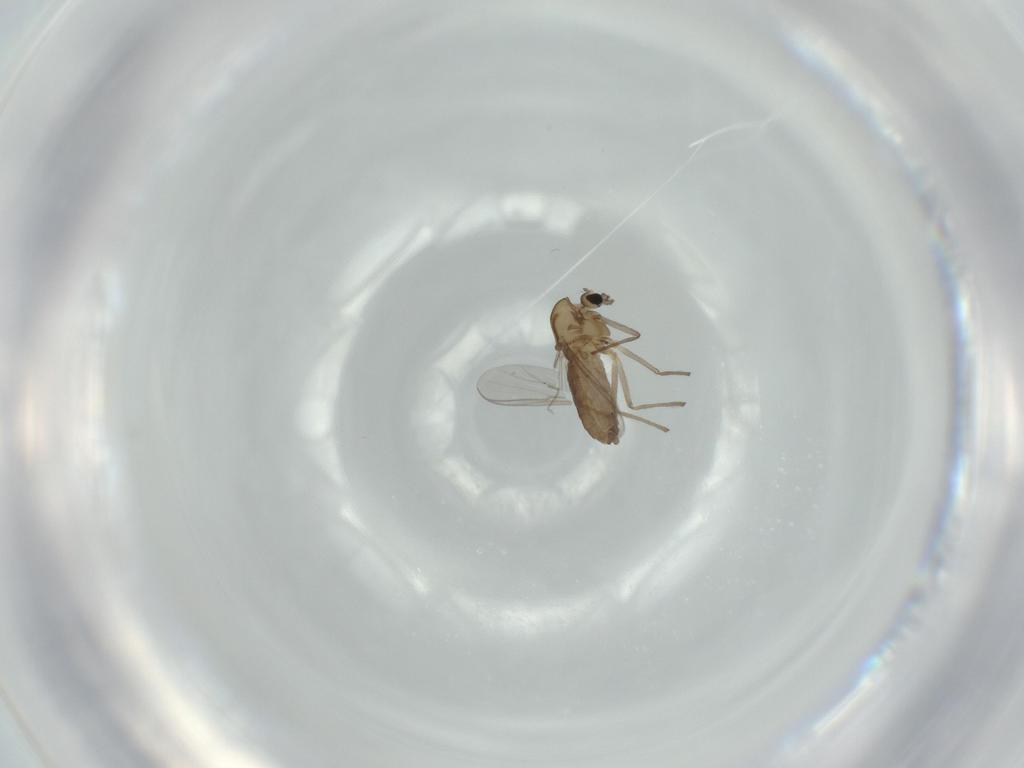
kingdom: Animalia
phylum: Arthropoda
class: Insecta
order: Diptera
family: Chironomidae
